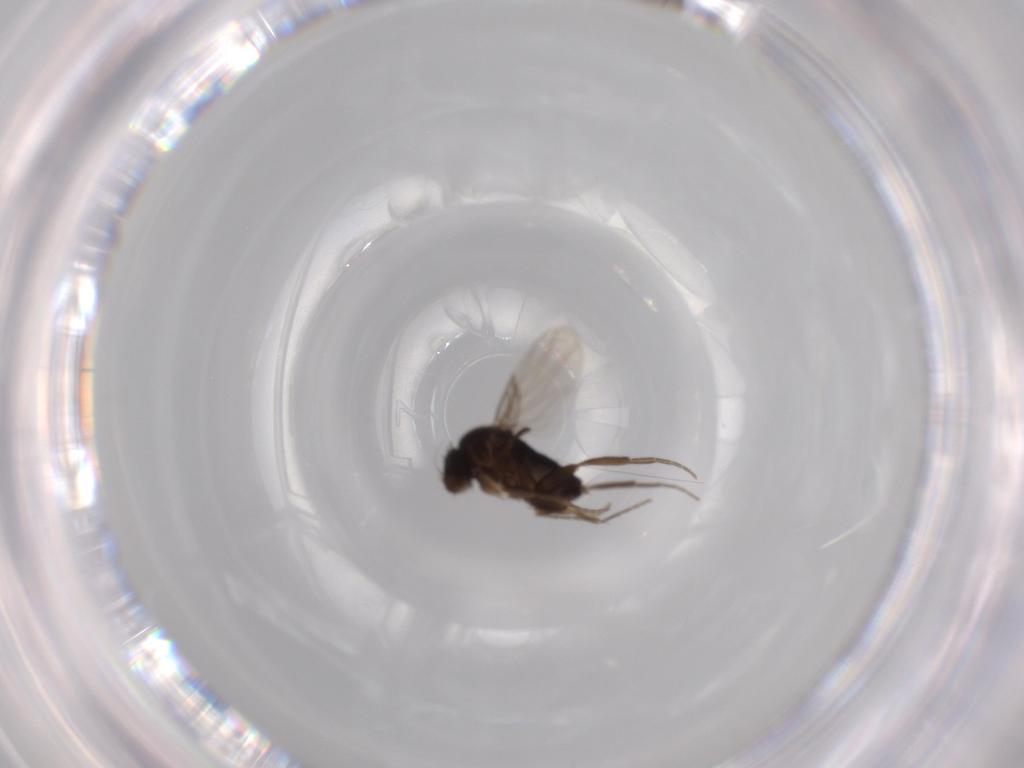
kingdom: Animalia
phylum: Arthropoda
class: Insecta
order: Diptera
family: Phoridae
